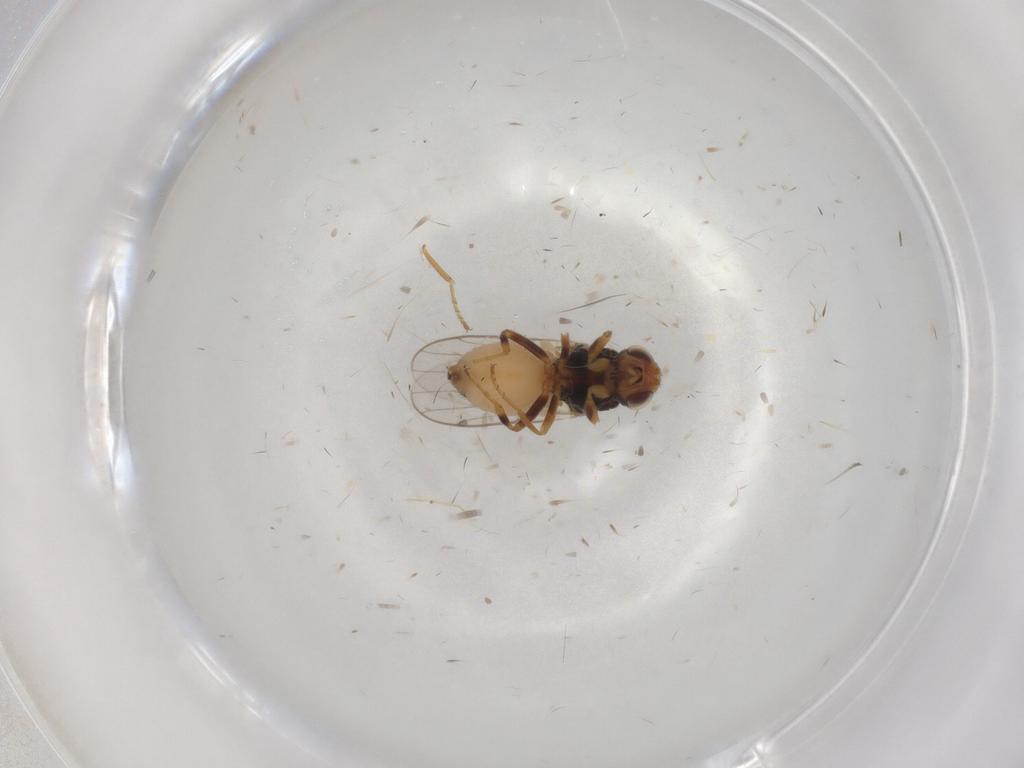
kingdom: Animalia
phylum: Arthropoda
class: Insecta
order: Diptera
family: Chloropidae
